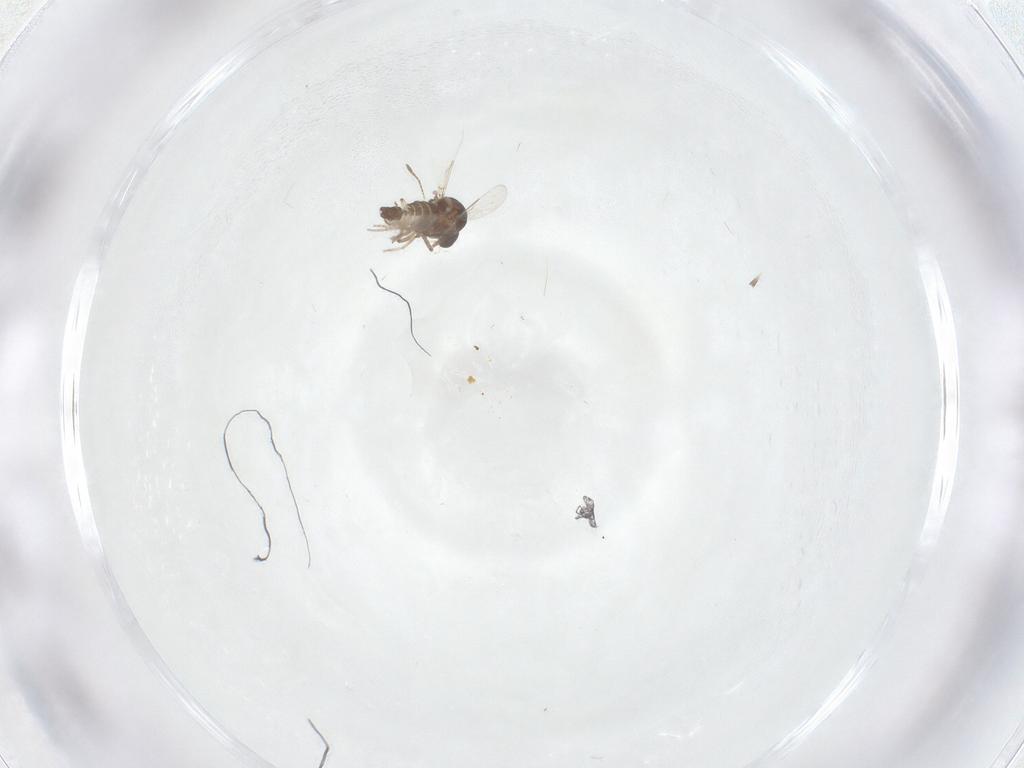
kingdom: Animalia
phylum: Arthropoda
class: Insecta
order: Diptera
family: Ceratopogonidae
